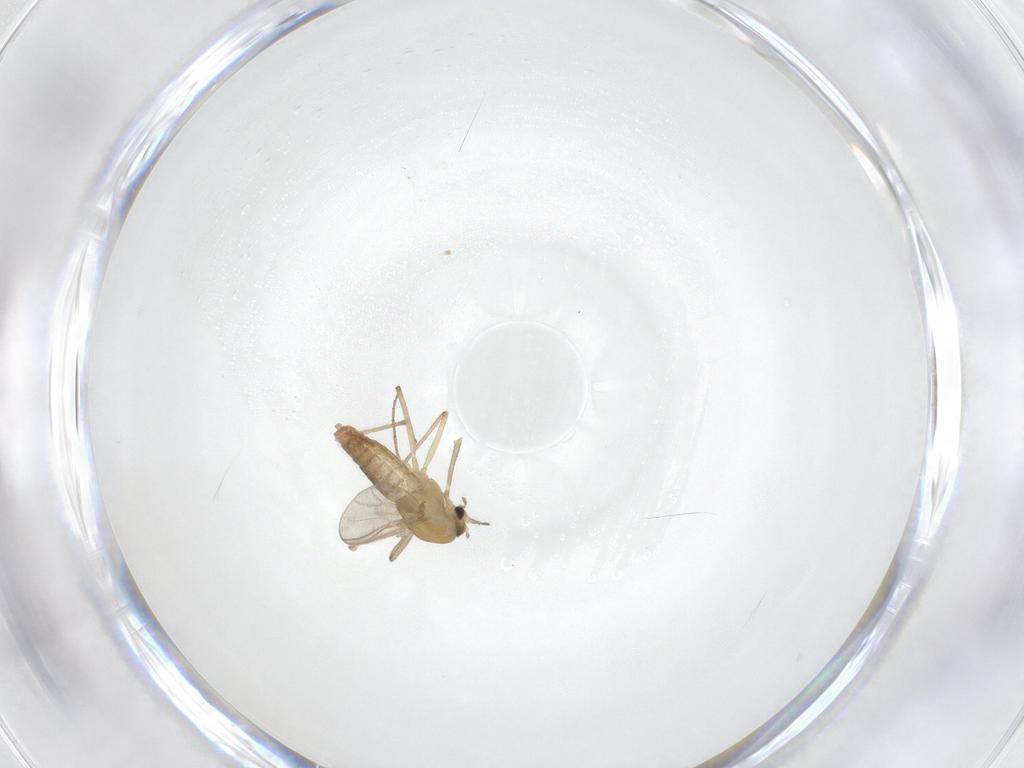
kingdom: Animalia
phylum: Arthropoda
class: Insecta
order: Diptera
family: Chironomidae
